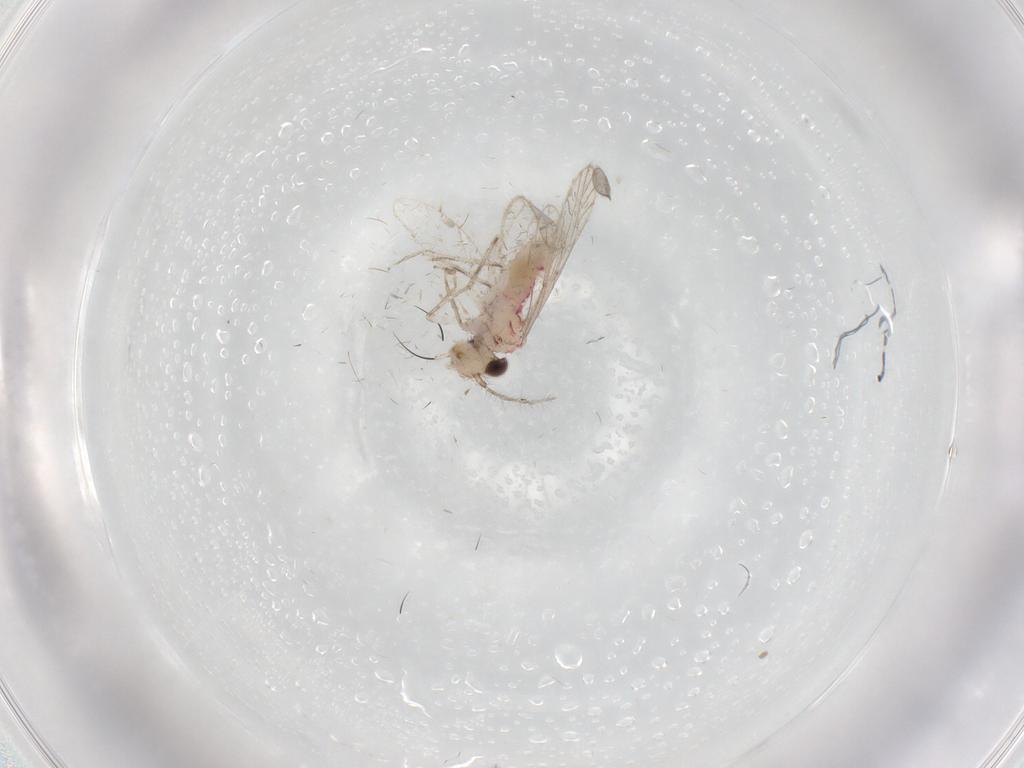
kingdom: Animalia
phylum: Arthropoda
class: Insecta
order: Psocodea
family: Caeciliusidae
